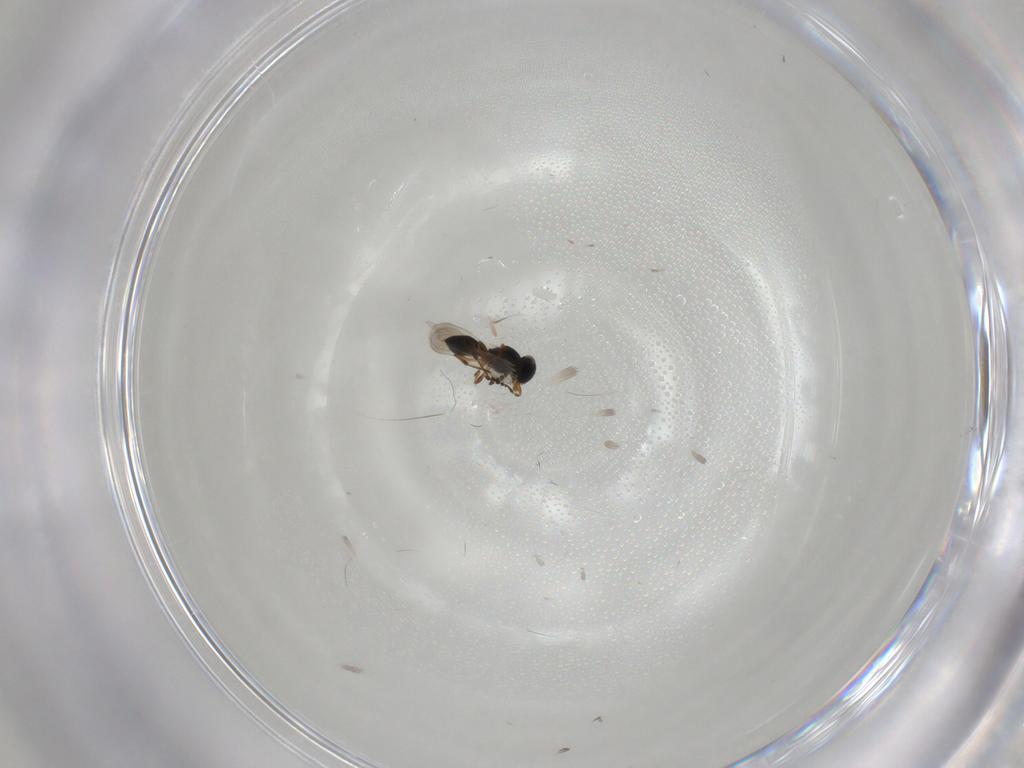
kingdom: Animalia
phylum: Arthropoda
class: Insecta
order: Hymenoptera
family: Platygastridae
